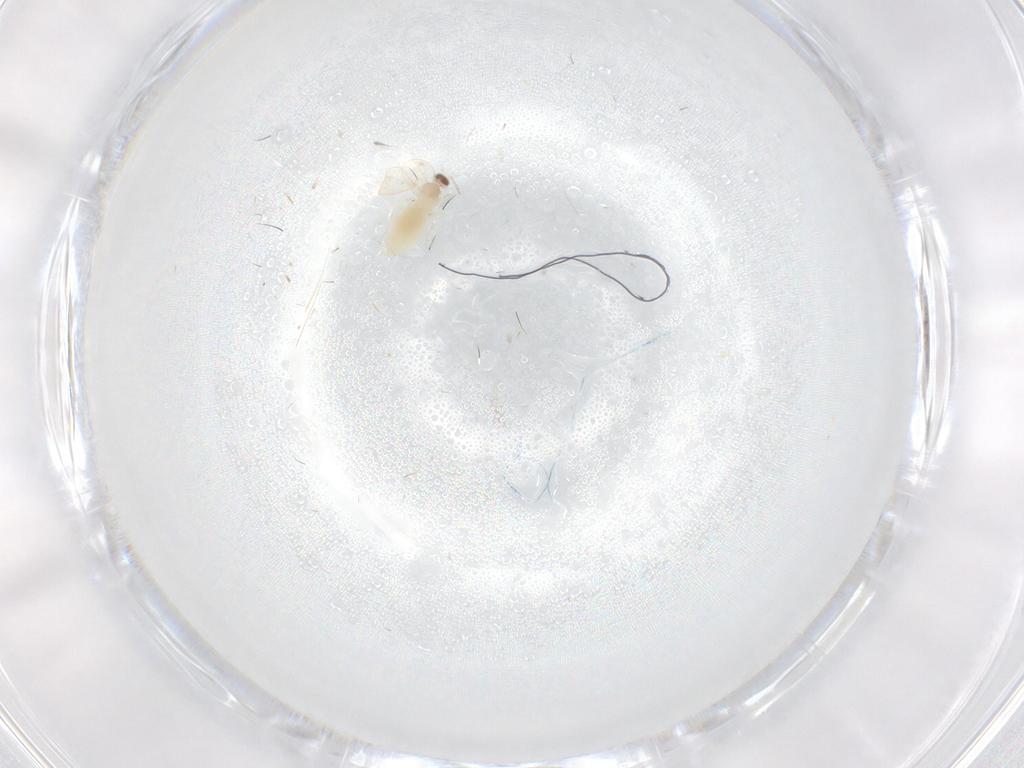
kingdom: Animalia
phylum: Arthropoda
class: Insecta
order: Diptera
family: Cecidomyiidae
